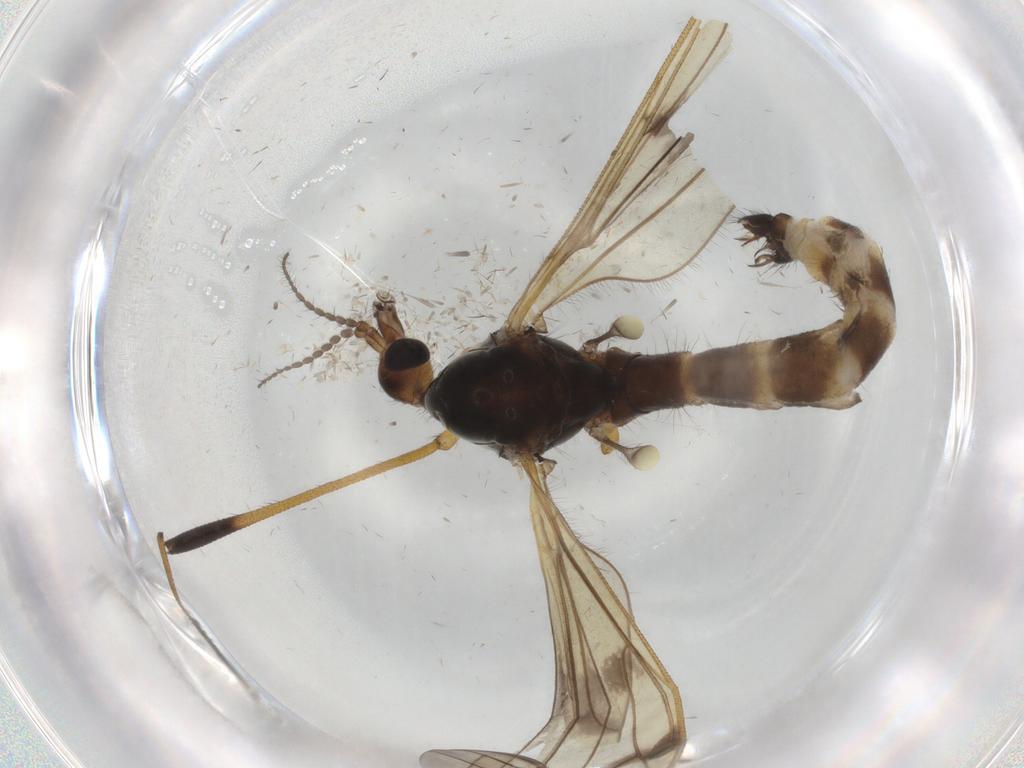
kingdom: Animalia
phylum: Arthropoda
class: Insecta
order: Diptera
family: Limoniidae
